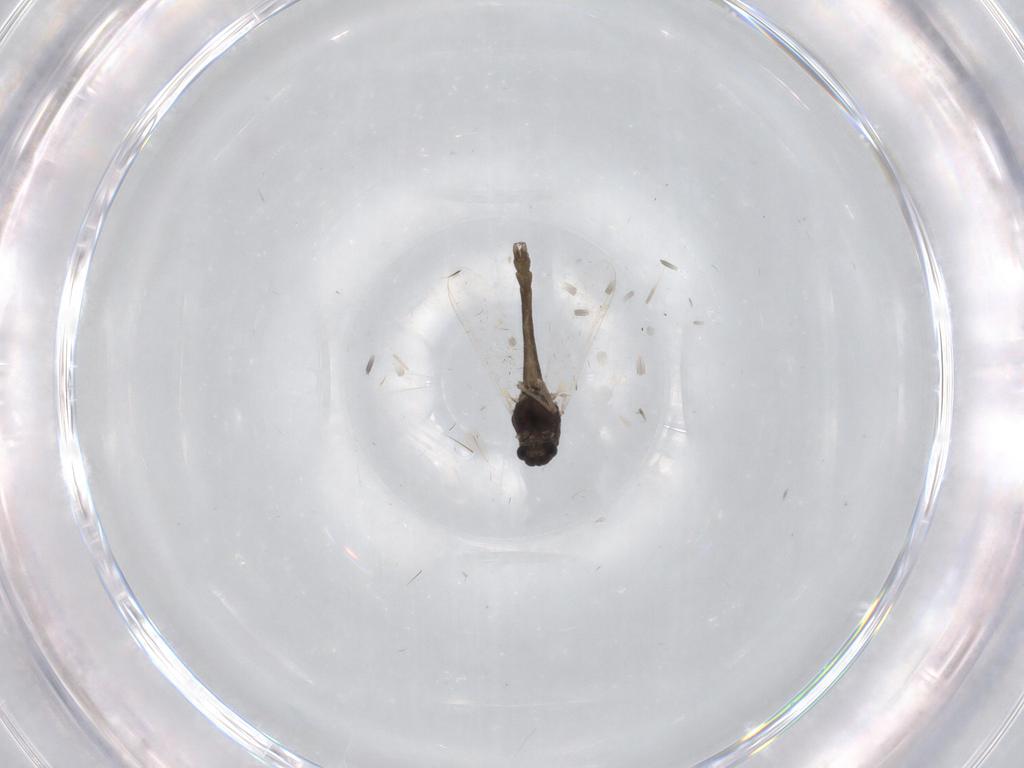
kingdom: Animalia
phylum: Arthropoda
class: Insecta
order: Diptera
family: Chironomidae
